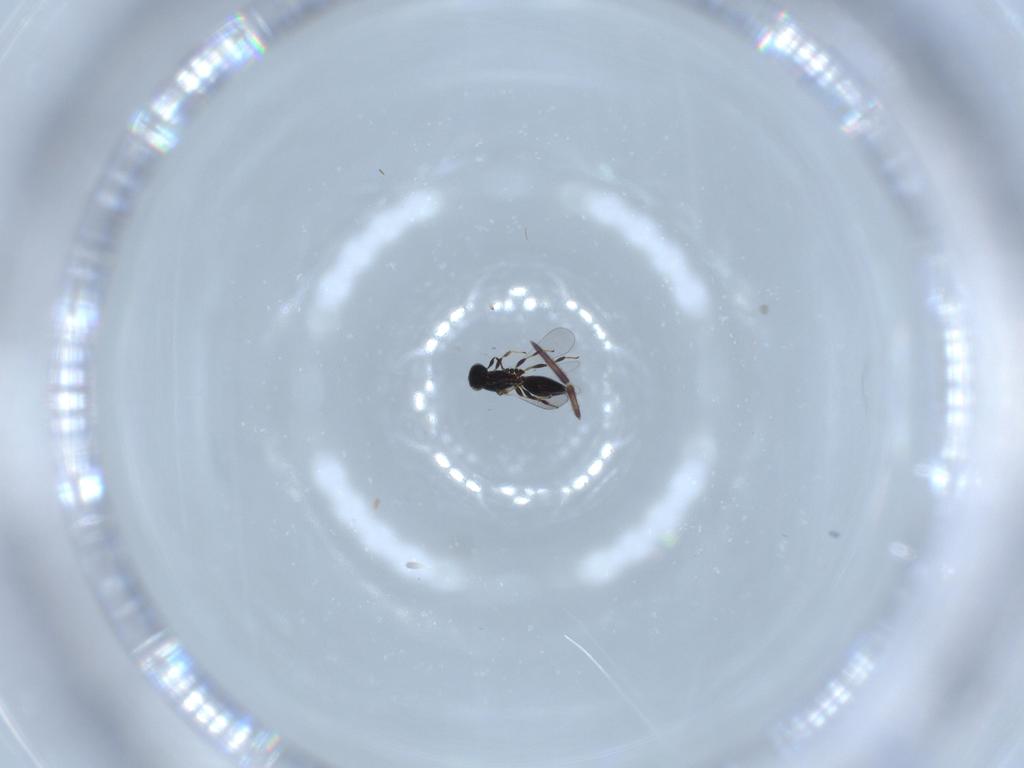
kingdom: Animalia
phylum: Arthropoda
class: Insecta
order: Hymenoptera
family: Platygastridae
